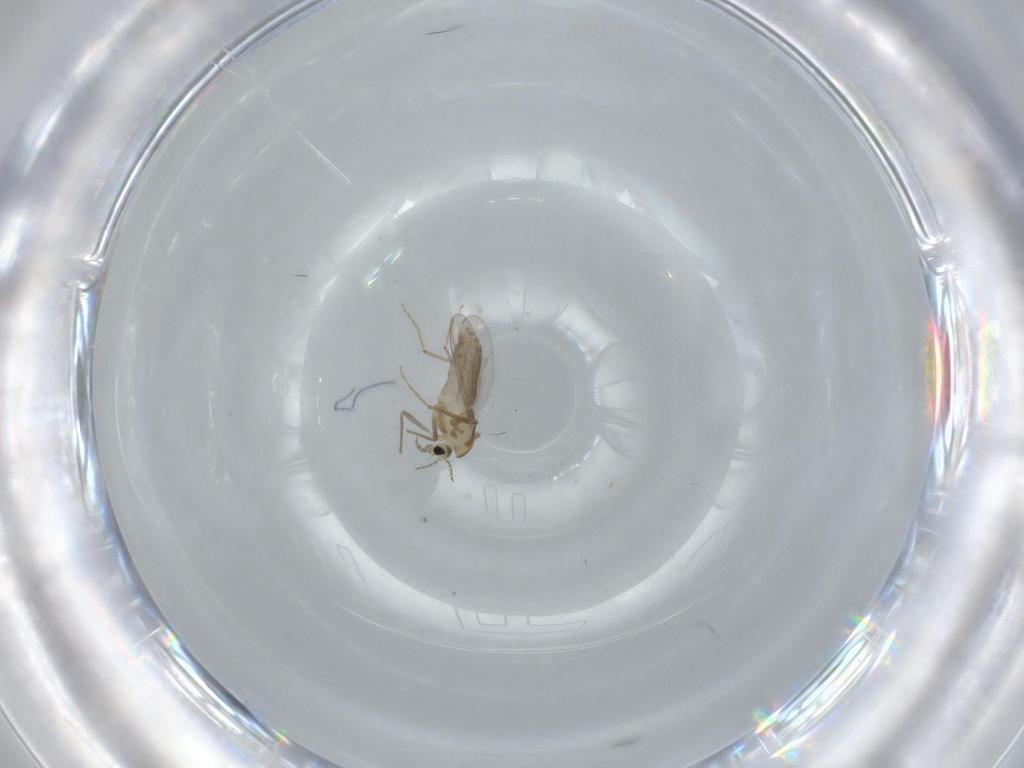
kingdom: Animalia
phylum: Arthropoda
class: Insecta
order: Diptera
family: Chironomidae
